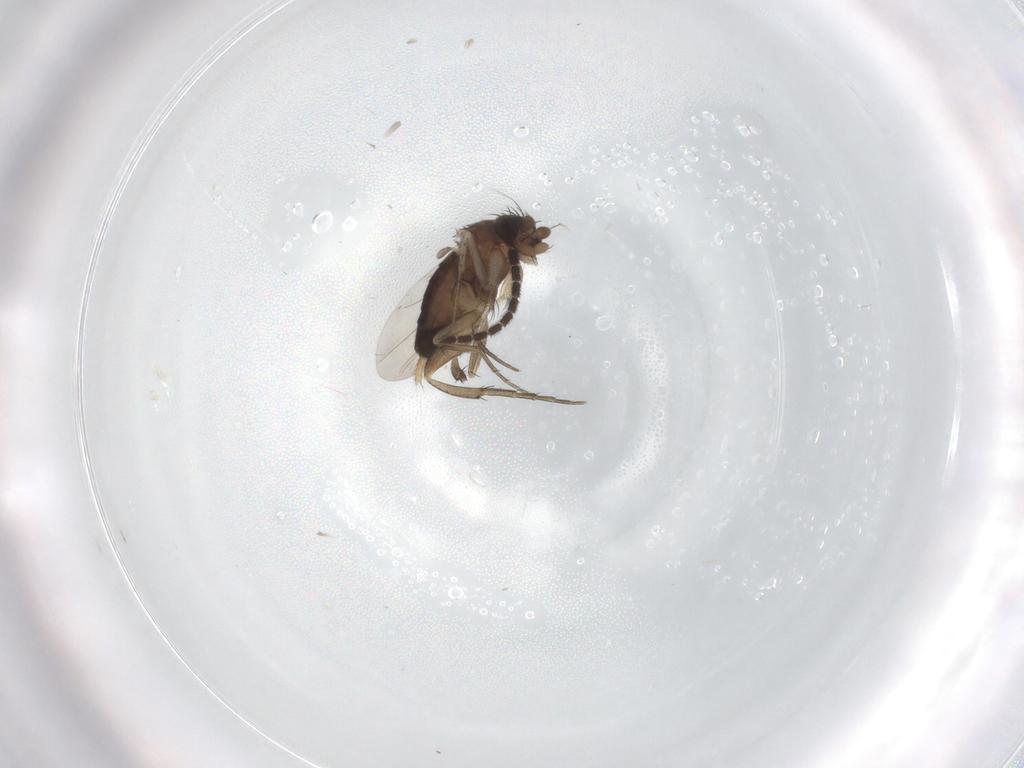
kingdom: Animalia
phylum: Arthropoda
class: Insecta
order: Diptera
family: Phoridae
